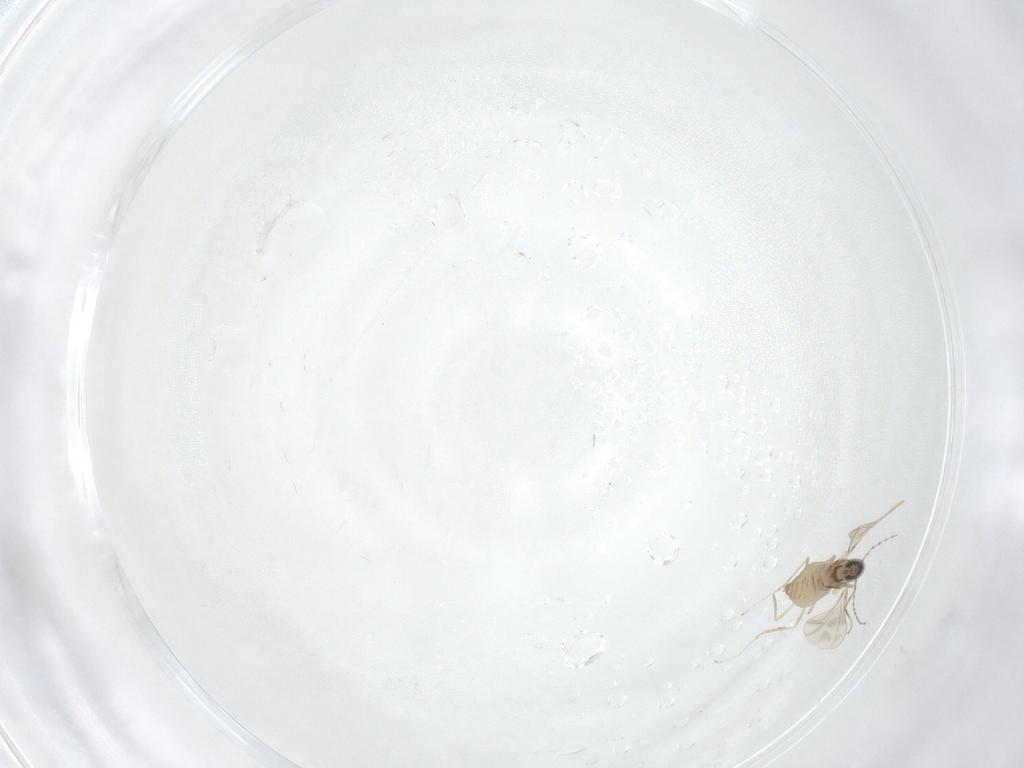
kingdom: Animalia
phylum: Arthropoda
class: Insecta
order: Diptera
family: Cecidomyiidae
